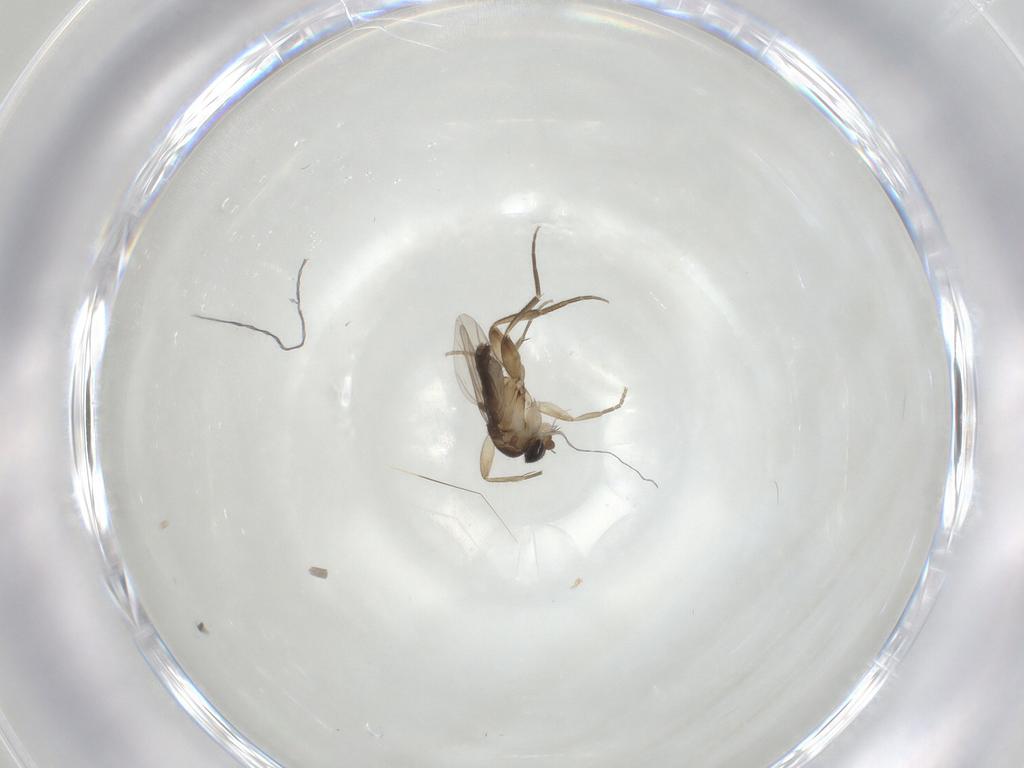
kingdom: Animalia
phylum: Arthropoda
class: Insecta
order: Diptera
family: Phoridae
